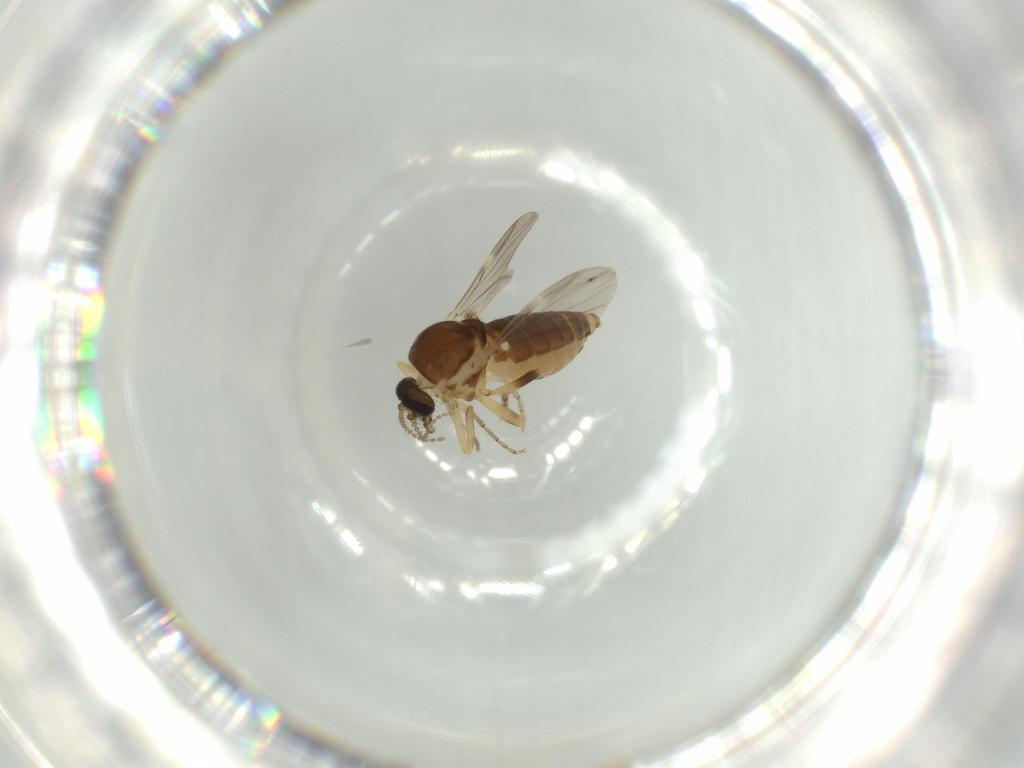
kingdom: Animalia
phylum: Arthropoda
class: Insecta
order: Diptera
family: Ceratopogonidae
